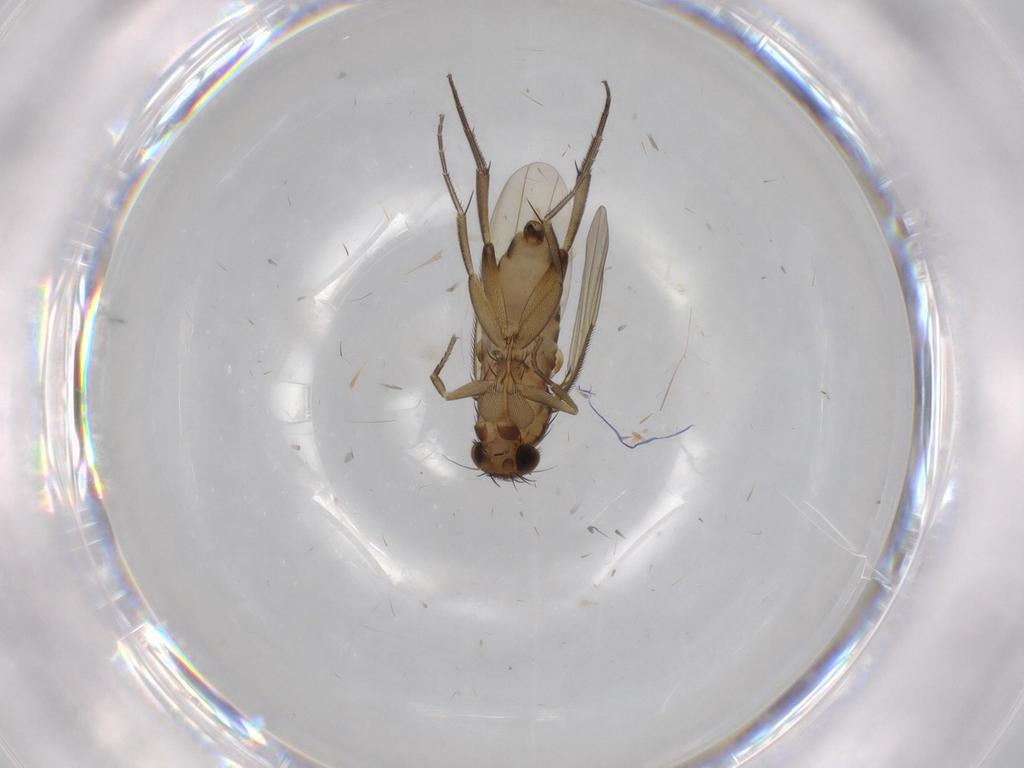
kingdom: Animalia
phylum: Arthropoda
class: Insecta
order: Diptera
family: Phoridae
